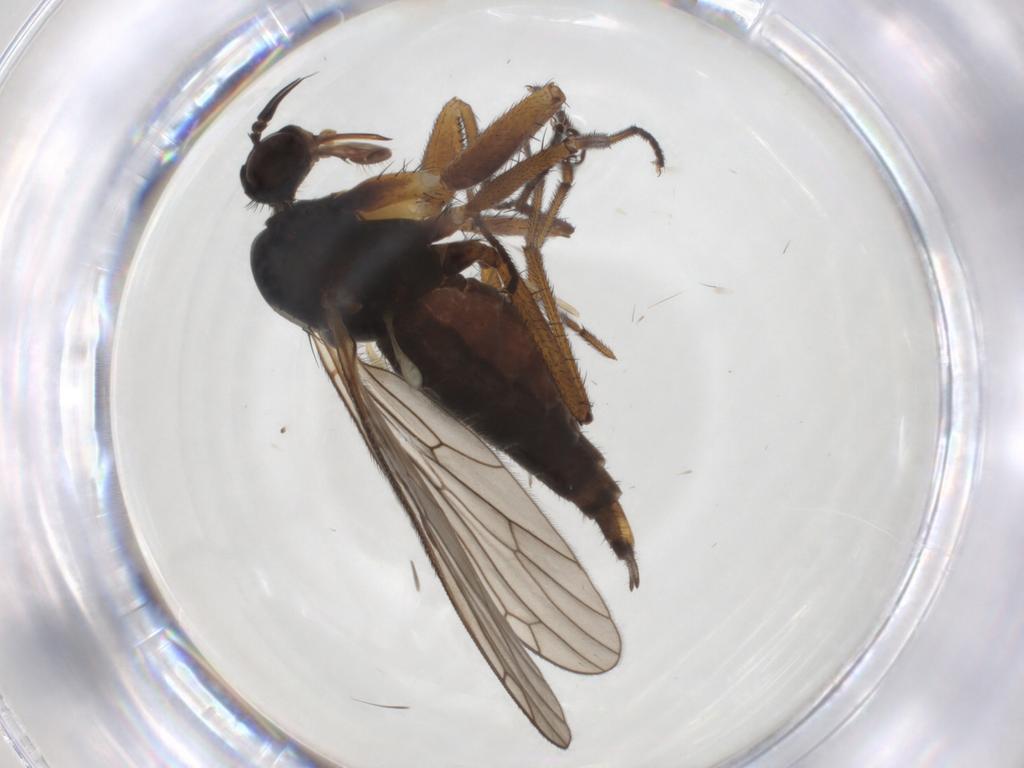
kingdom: Animalia
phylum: Arthropoda
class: Insecta
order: Diptera
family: Empididae
